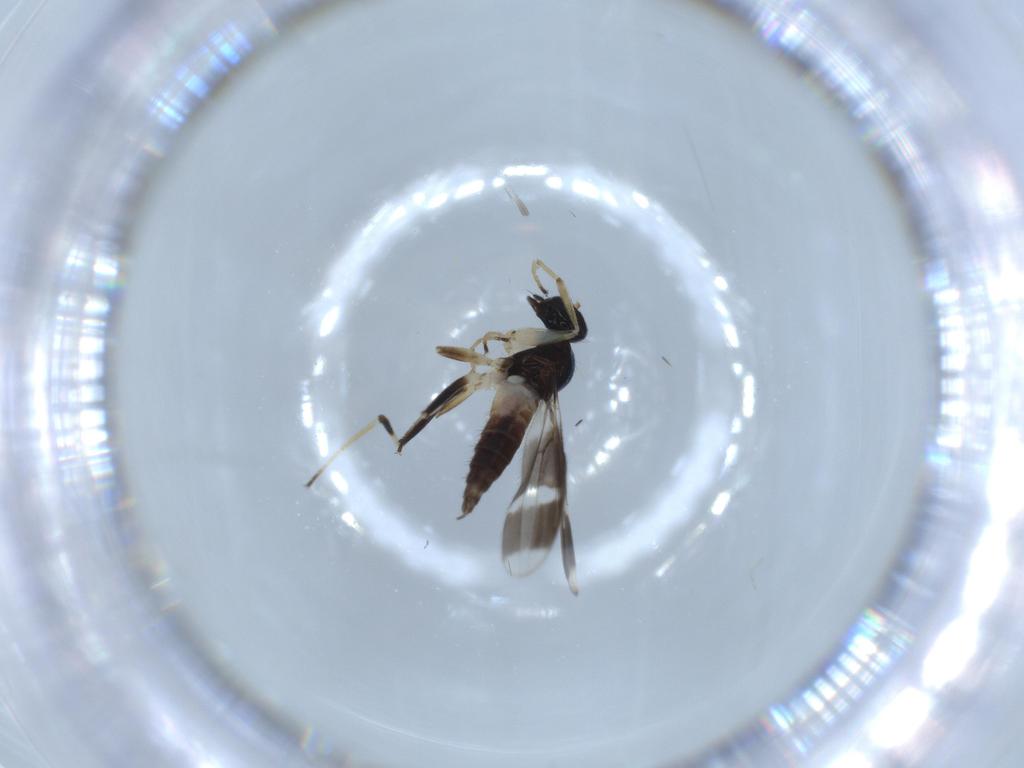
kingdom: Animalia
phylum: Arthropoda
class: Insecta
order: Diptera
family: Hybotidae
